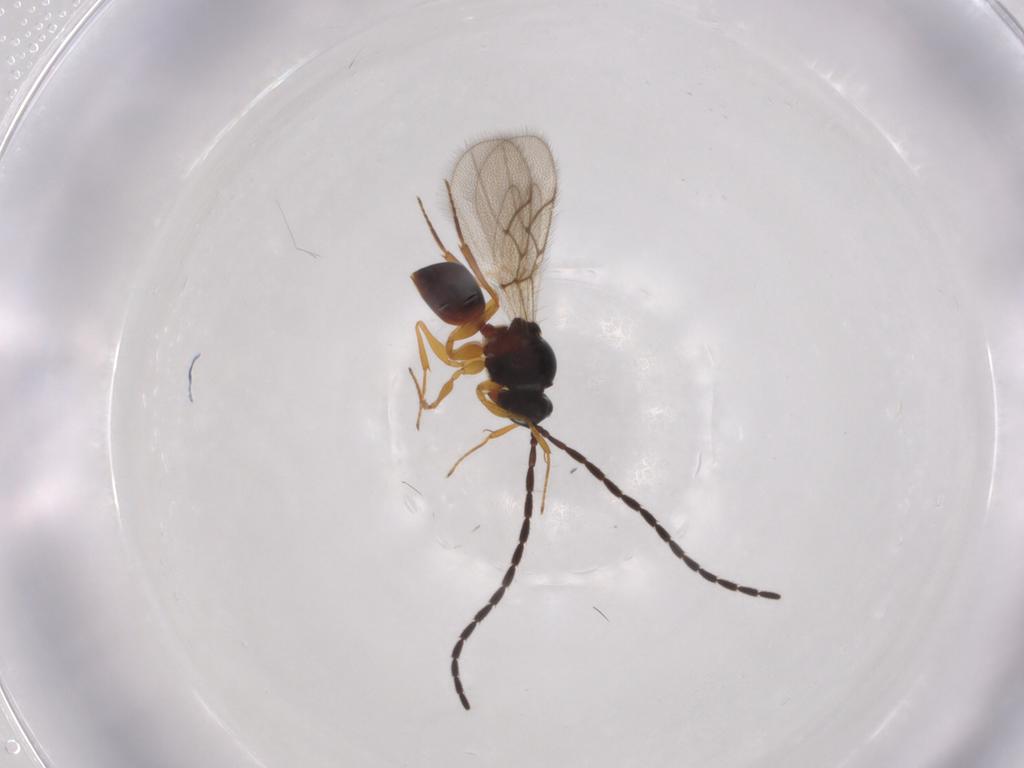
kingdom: Animalia
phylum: Arthropoda
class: Insecta
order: Hymenoptera
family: Figitidae
